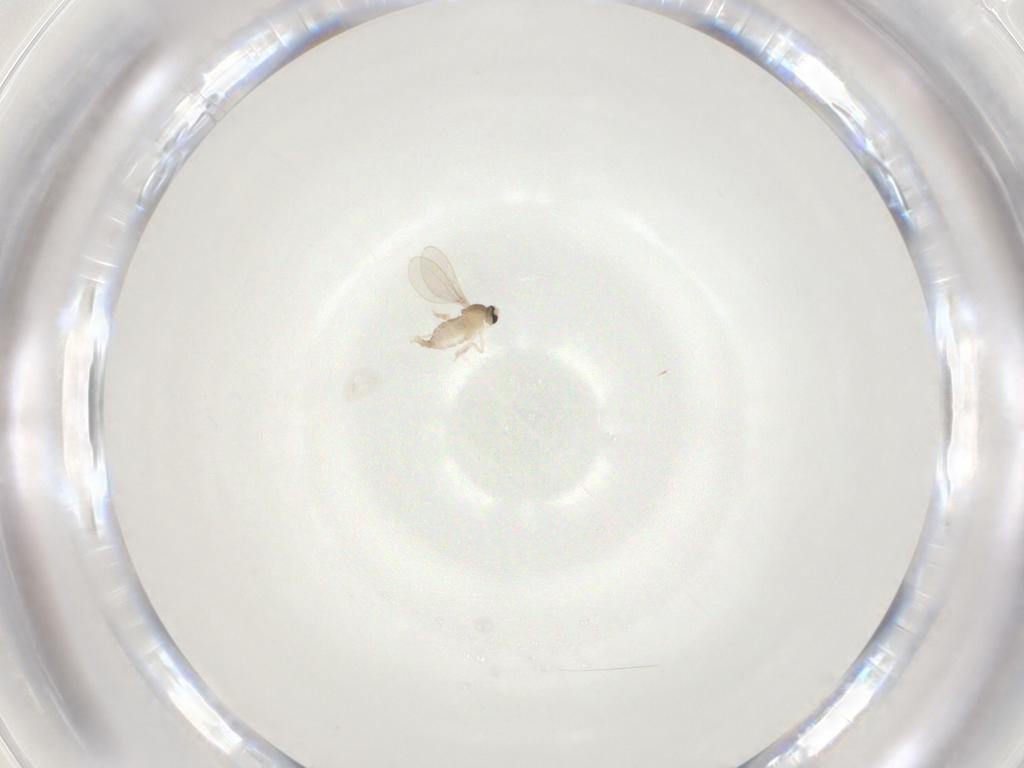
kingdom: Animalia
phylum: Arthropoda
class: Insecta
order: Diptera
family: Cecidomyiidae
